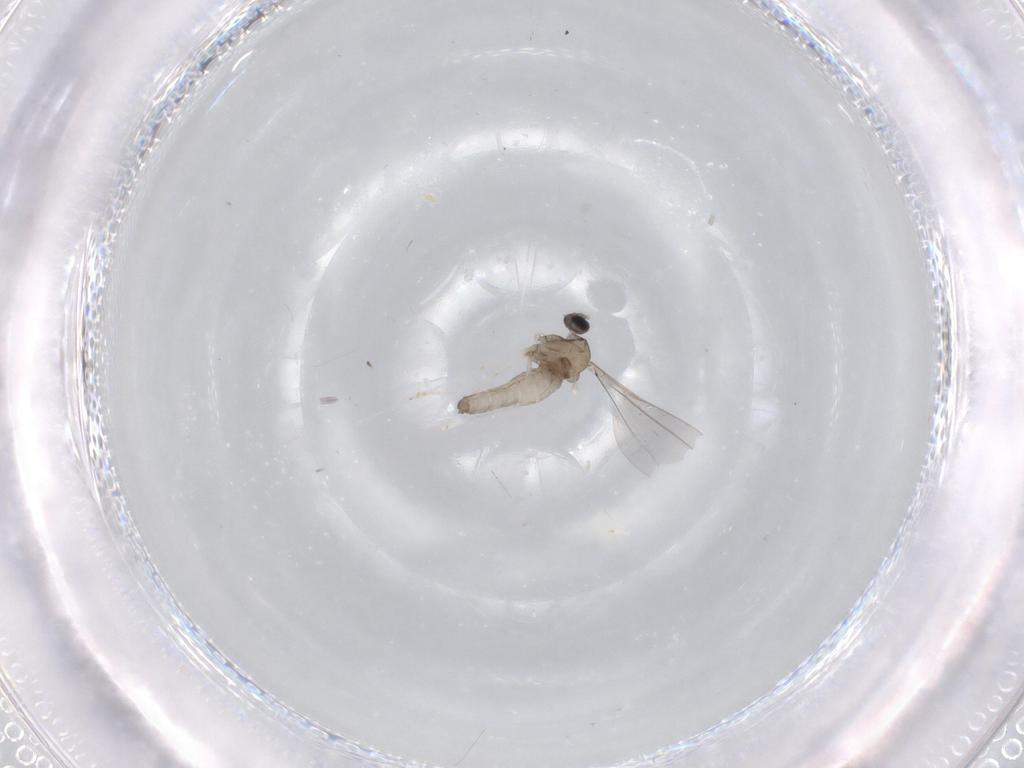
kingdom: Animalia
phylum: Arthropoda
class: Insecta
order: Diptera
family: Chironomidae
